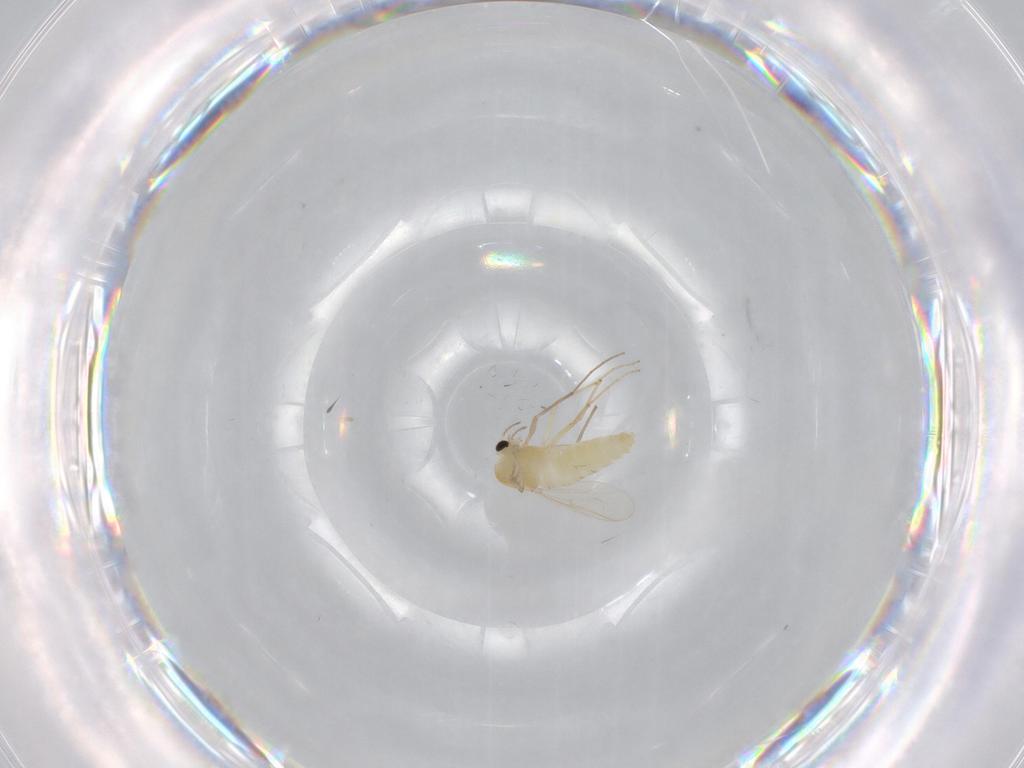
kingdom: Animalia
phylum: Arthropoda
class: Insecta
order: Diptera
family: Chironomidae
